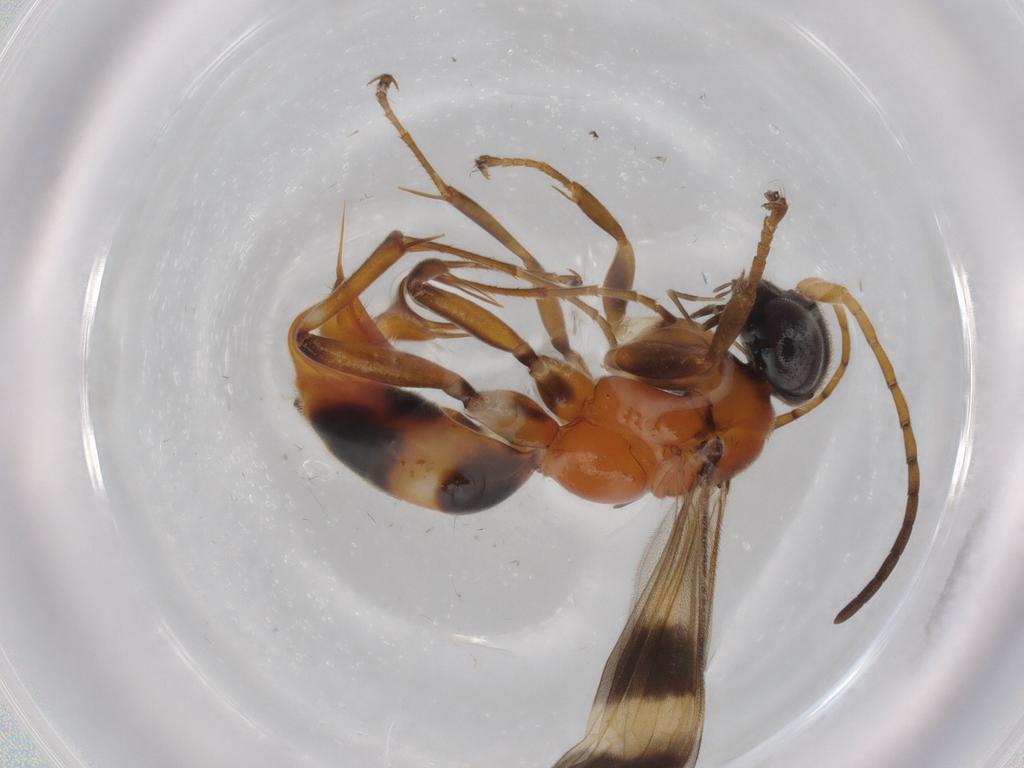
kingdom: Animalia
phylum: Arthropoda
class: Insecta
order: Hymenoptera
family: Pompilidae
